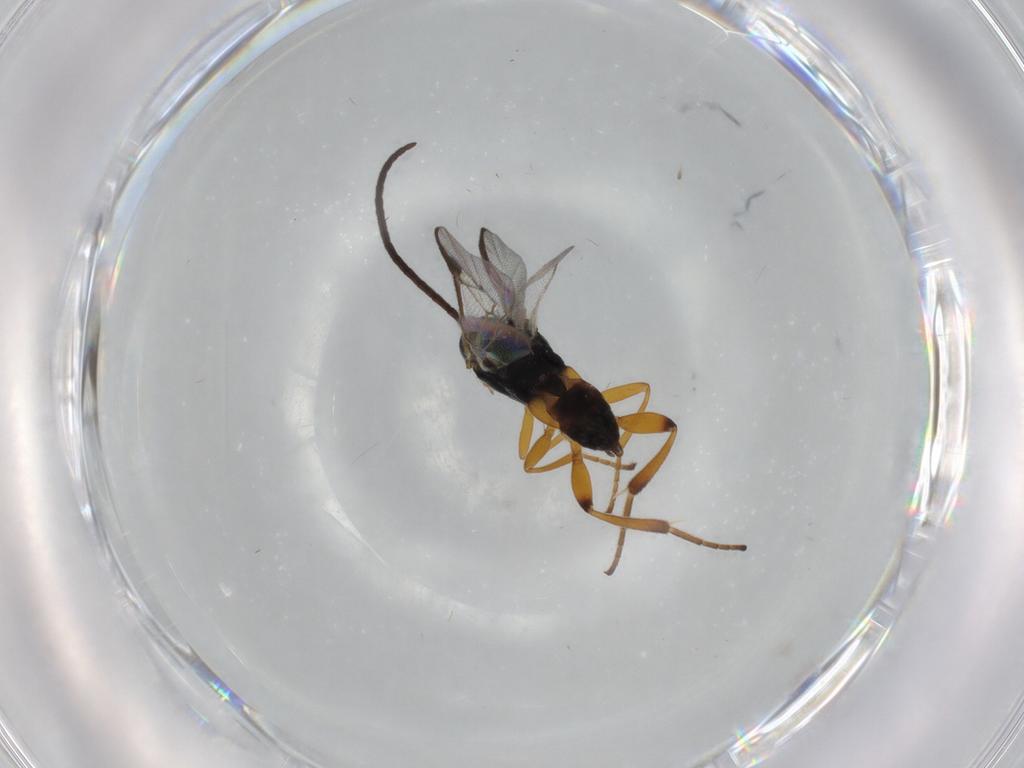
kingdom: Animalia
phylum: Arthropoda
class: Insecta
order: Hymenoptera
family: Braconidae
